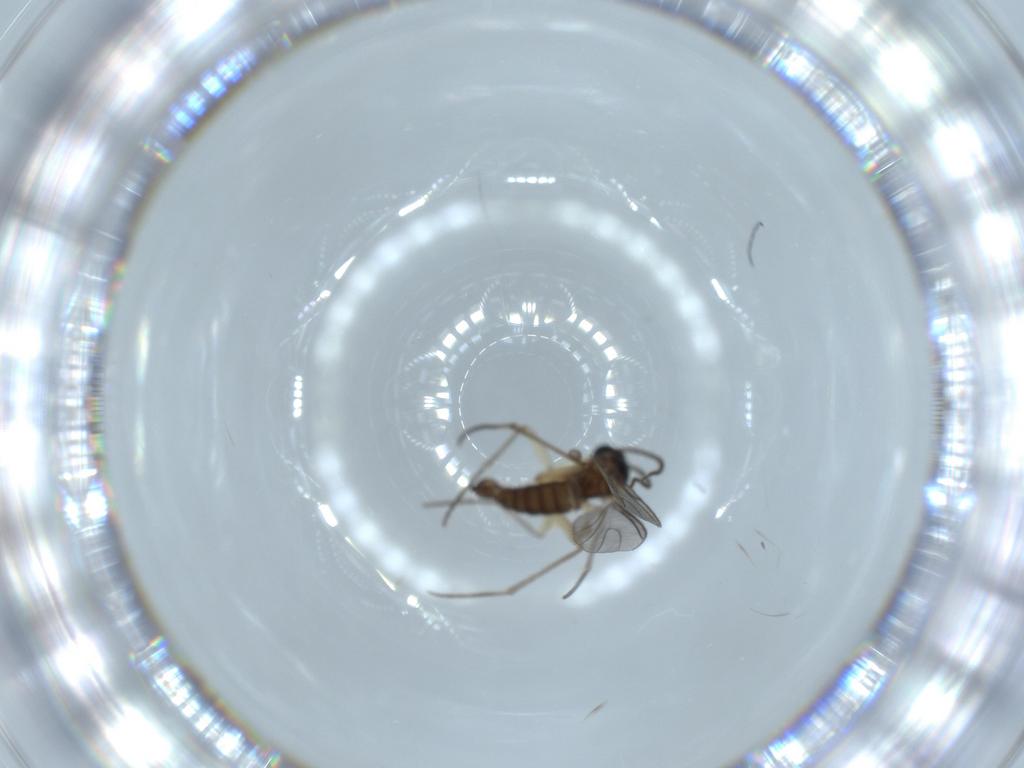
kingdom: Animalia
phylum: Arthropoda
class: Insecta
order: Diptera
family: Sciaridae
